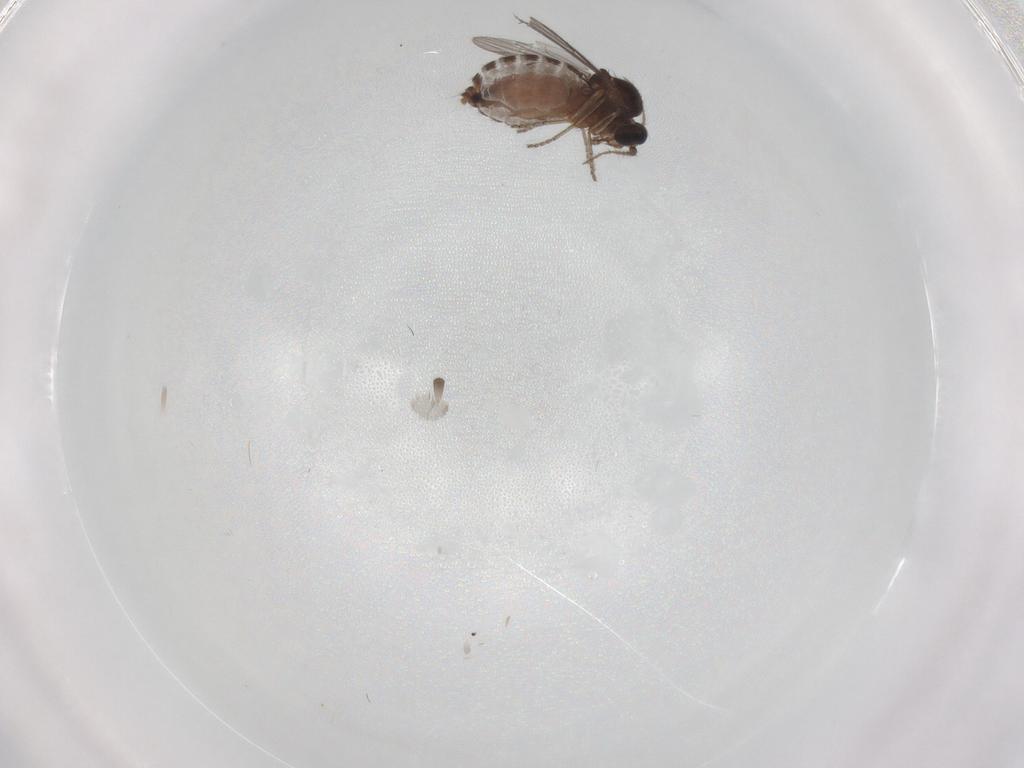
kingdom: Animalia
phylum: Arthropoda
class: Insecta
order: Diptera
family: Ceratopogonidae
